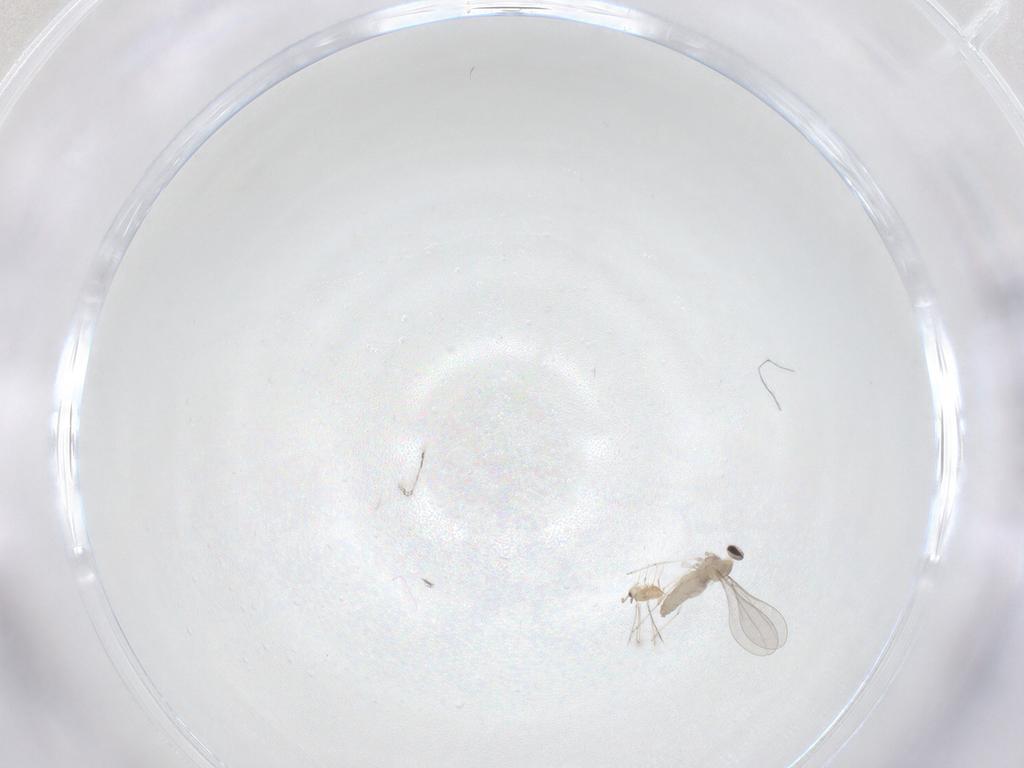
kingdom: Animalia
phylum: Arthropoda
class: Insecta
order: Diptera
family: Cecidomyiidae
